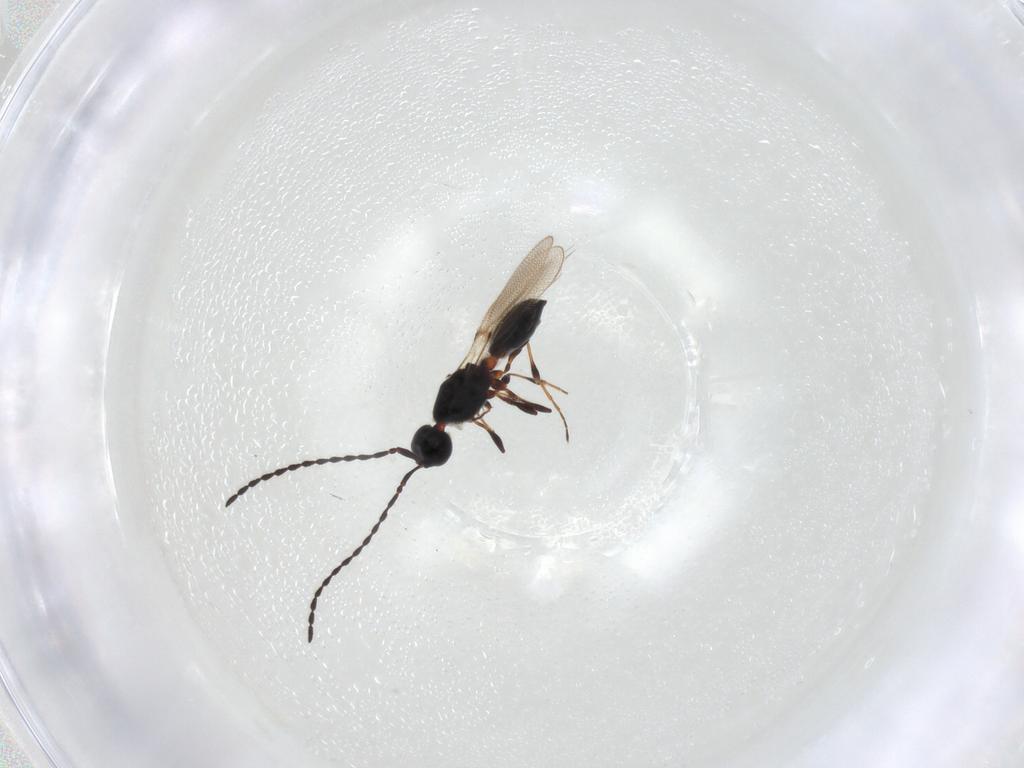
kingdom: Animalia
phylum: Arthropoda
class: Insecta
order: Hymenoptera
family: Diapriidae
